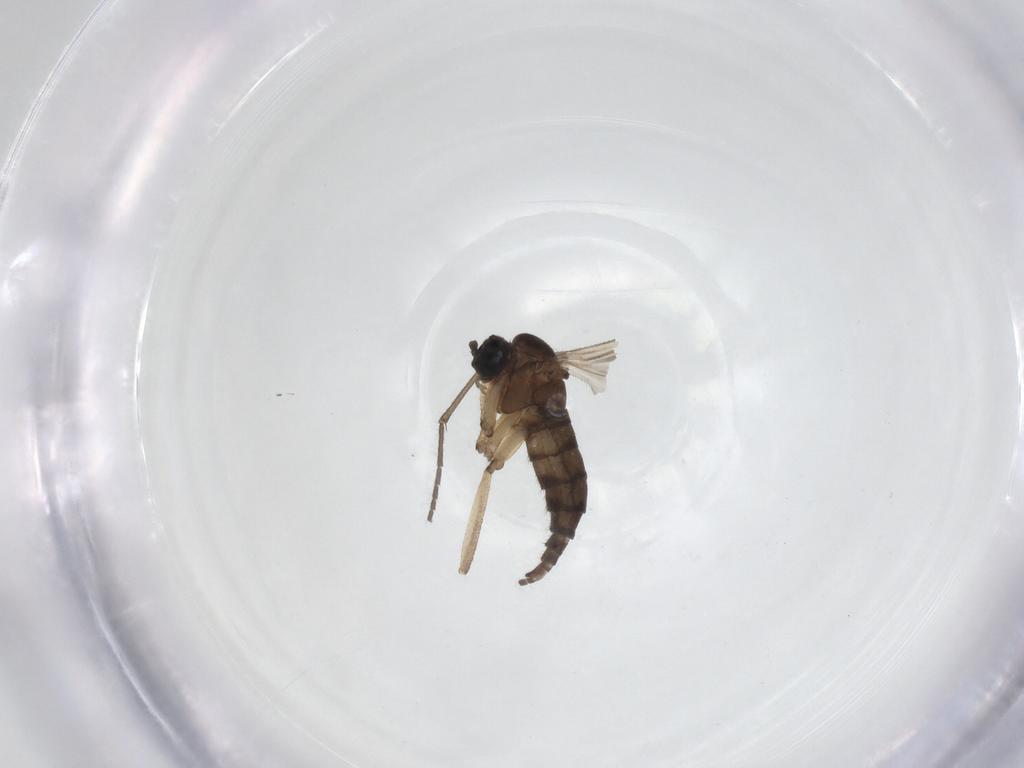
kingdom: Animalia
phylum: Arthropoda
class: Insecta
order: Diptera
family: Sciaridae
